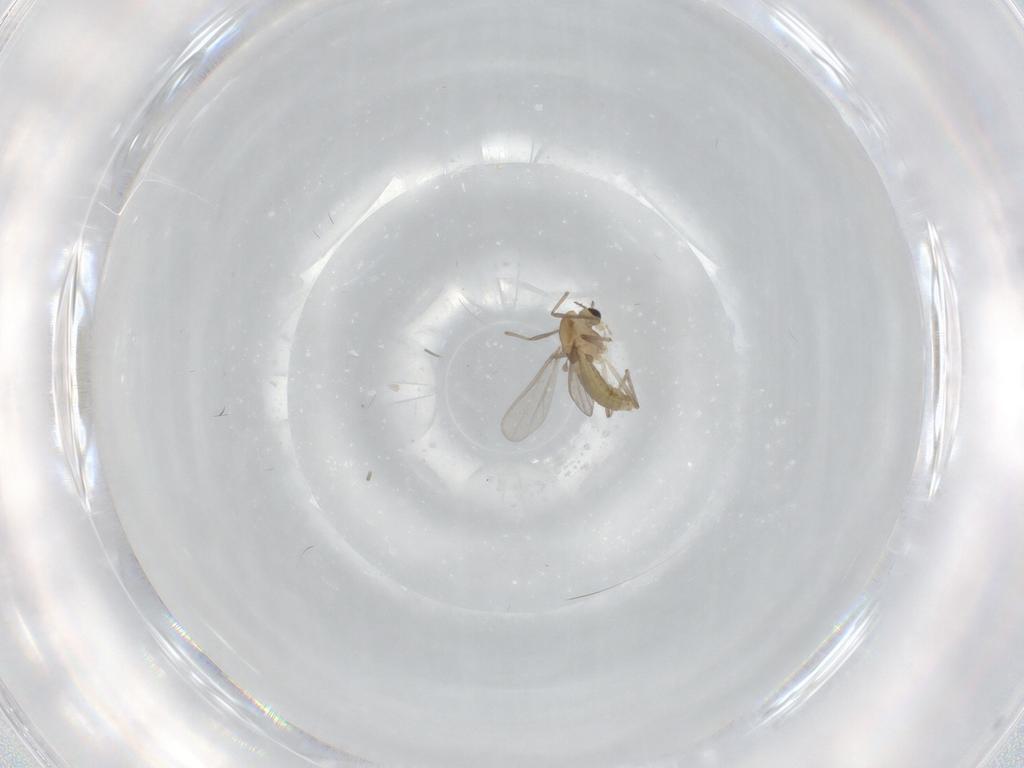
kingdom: Animalia
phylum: Arthropoda
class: Insecta
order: Diptera
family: Chironomidae
